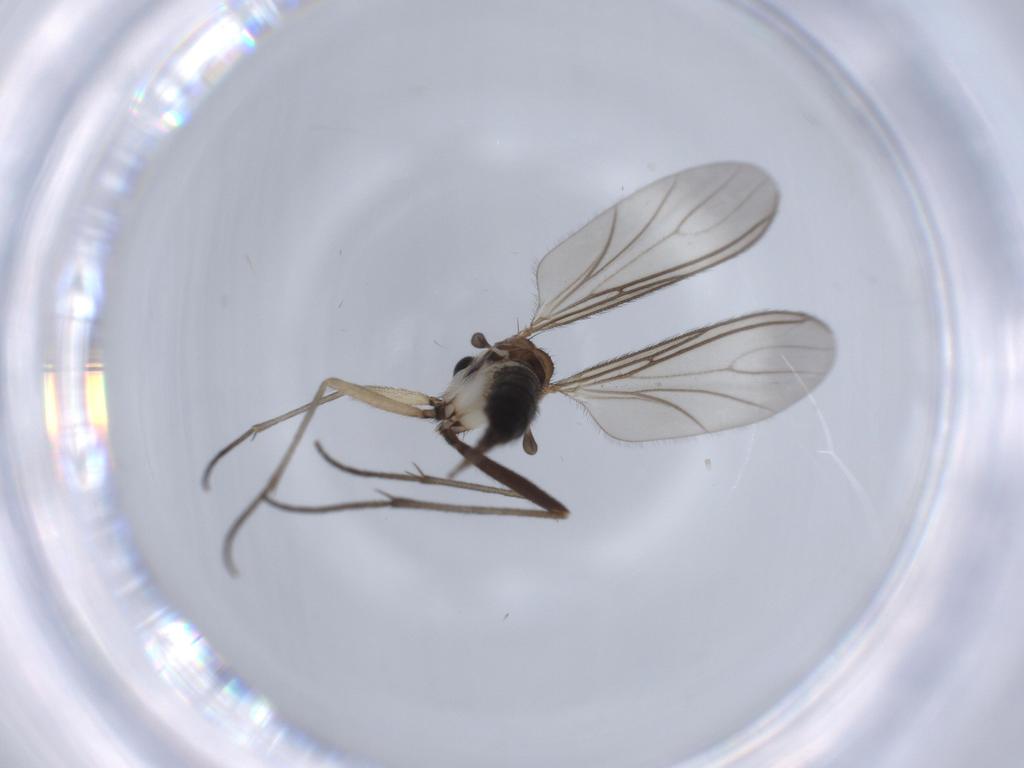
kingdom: Animalia
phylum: Arthropoda
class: Insecta
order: Diptera
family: Sciaridae
